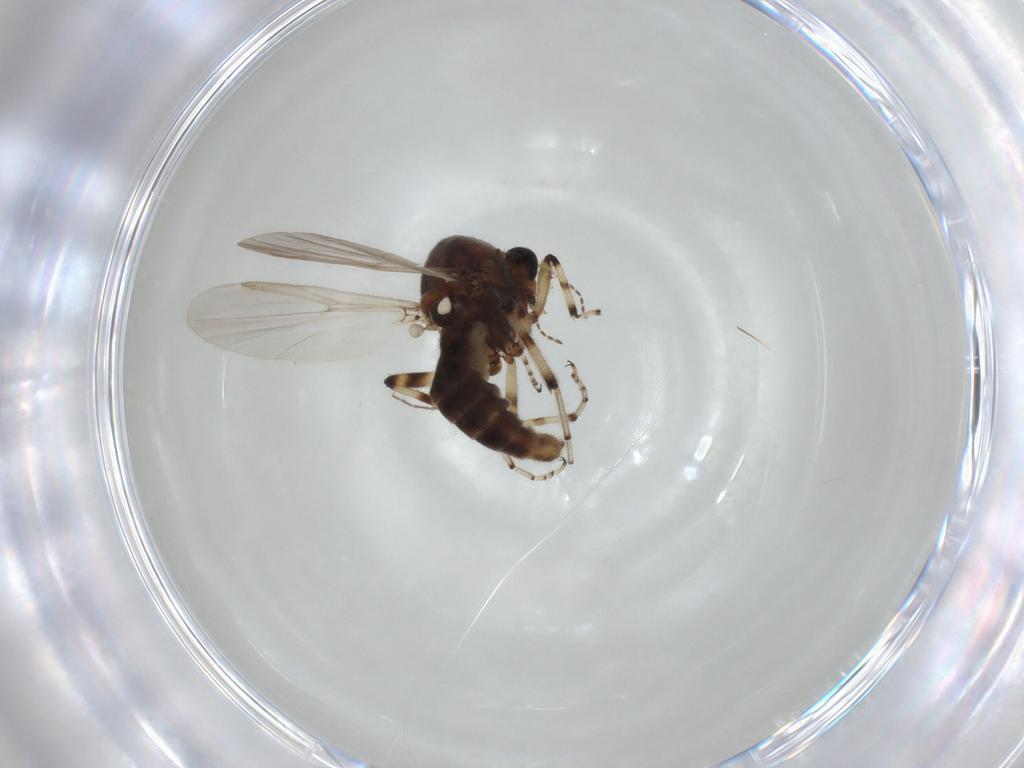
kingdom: Animalia
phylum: Arthropoda
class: Insecta
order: Diptera
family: Ceratopogonidae
